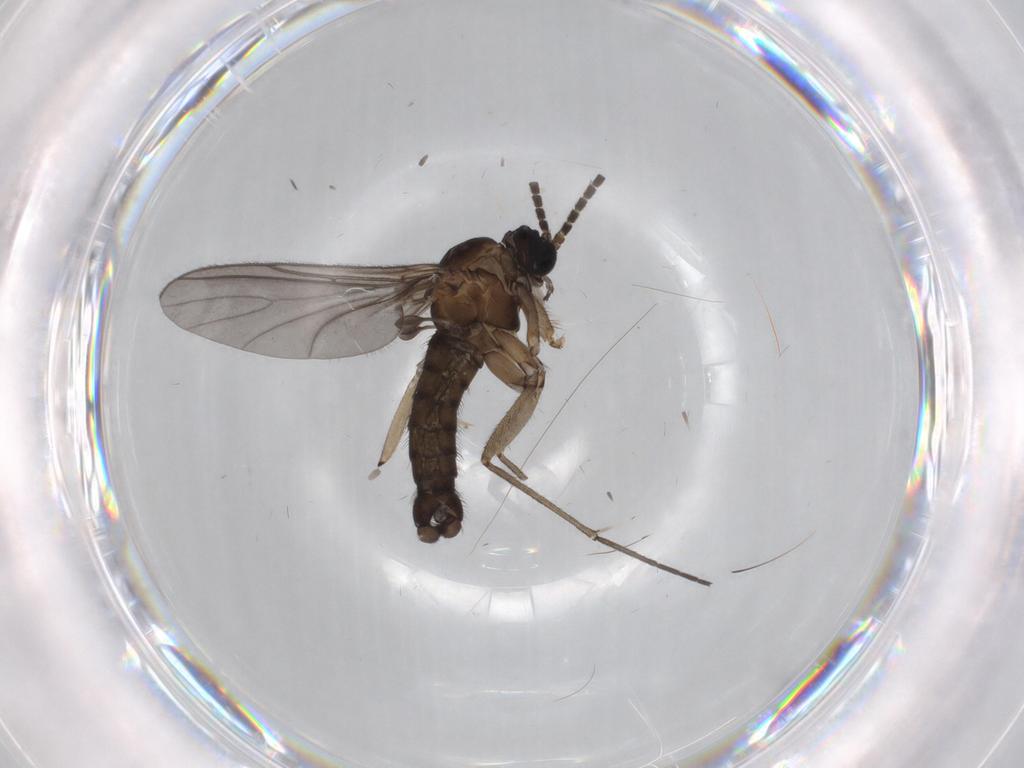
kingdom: Animalia
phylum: Arthropoda
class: Insecta
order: Diptera
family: Sciaridae
